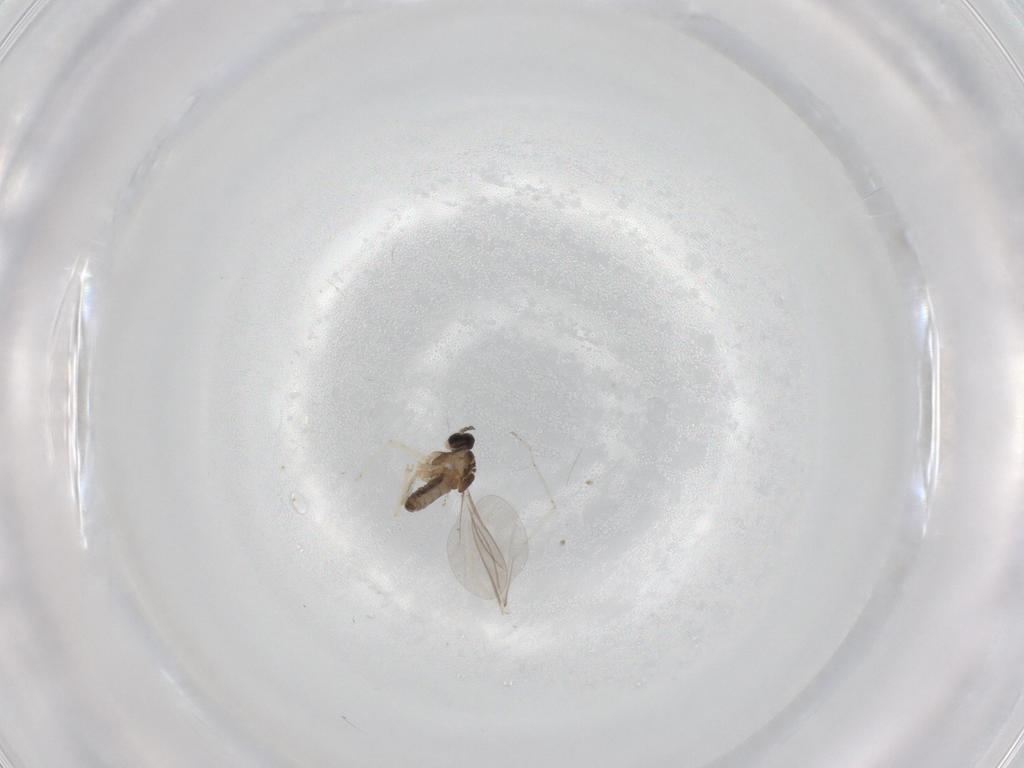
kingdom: Animalia
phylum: Arthropoda
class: Insecta
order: Diptera
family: Cecidomyiidae
